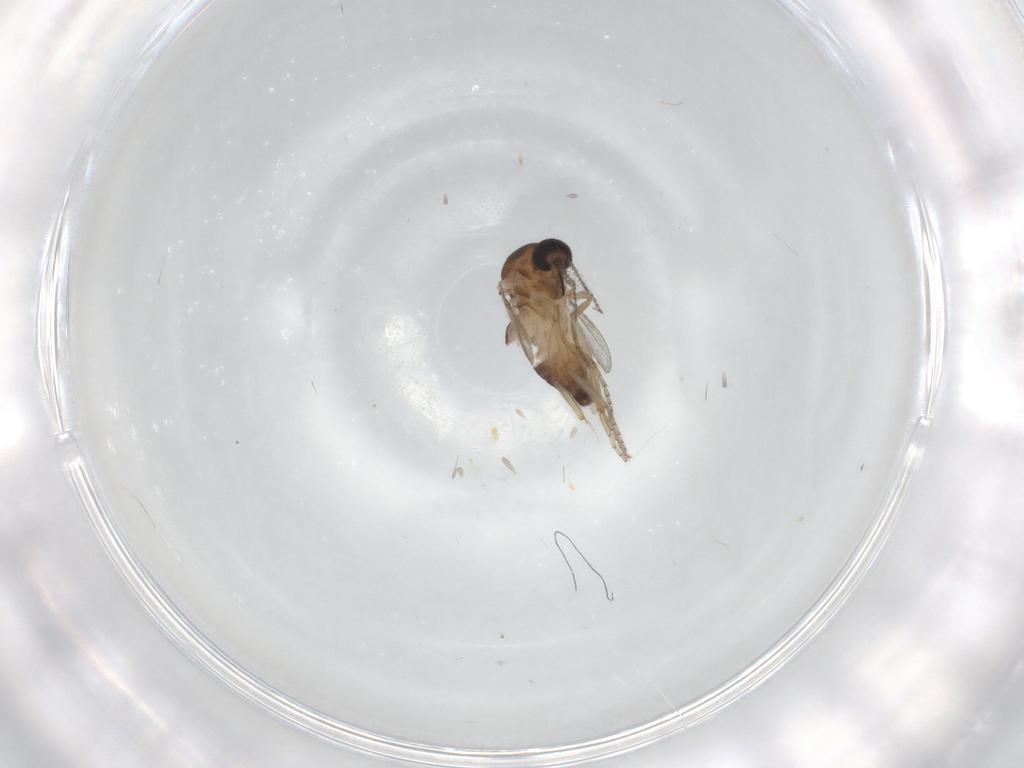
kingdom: Animalia
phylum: Arthropoda
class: Insecta
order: Diptera
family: Ceratopogonidae
